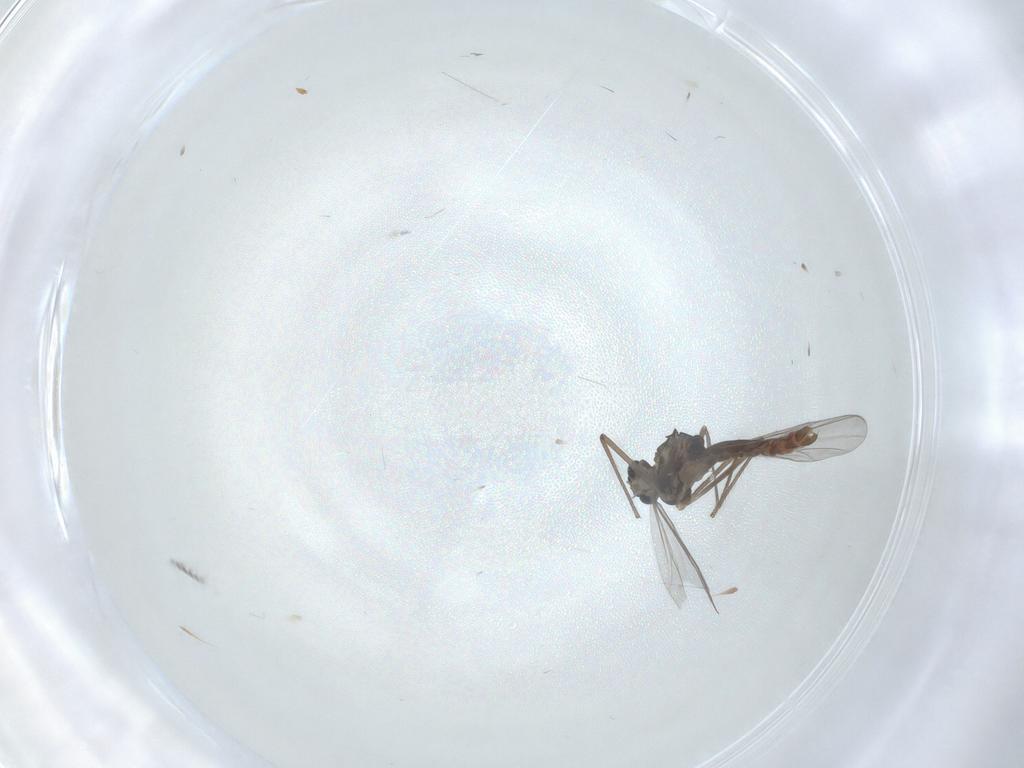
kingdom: Animalia
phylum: Arthropoda
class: Insecta
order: Diptera
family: Chironomidae
